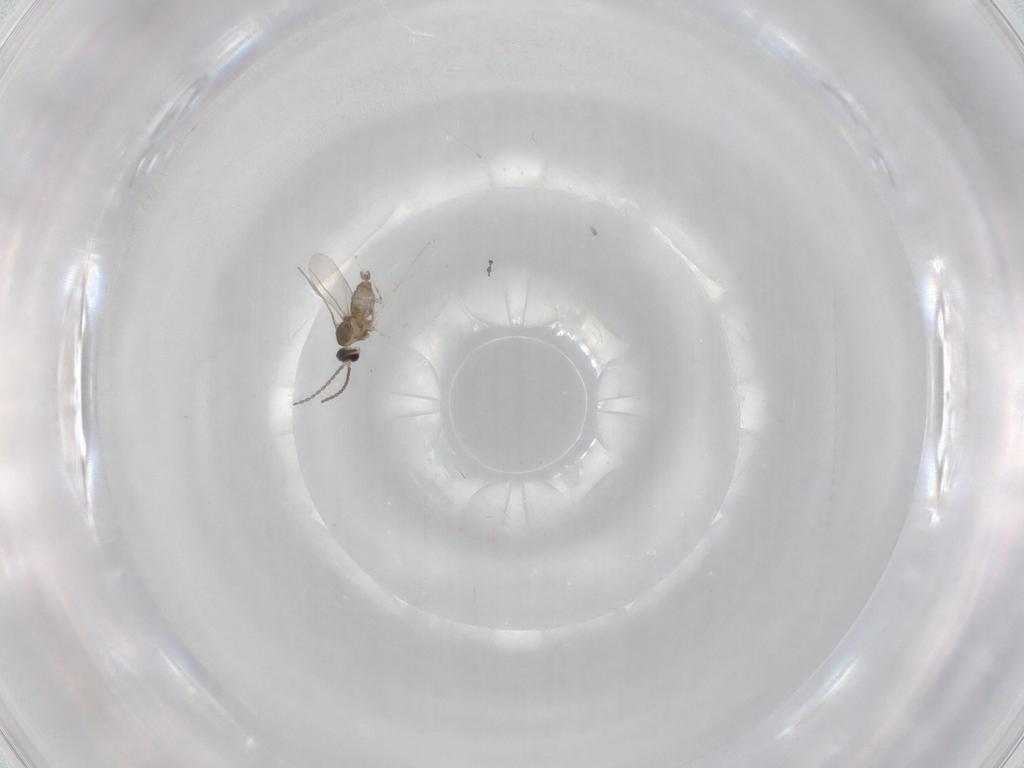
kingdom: Animalia
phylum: Arthropoda
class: Insecta
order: Diptera
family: Cecidomyiidae
